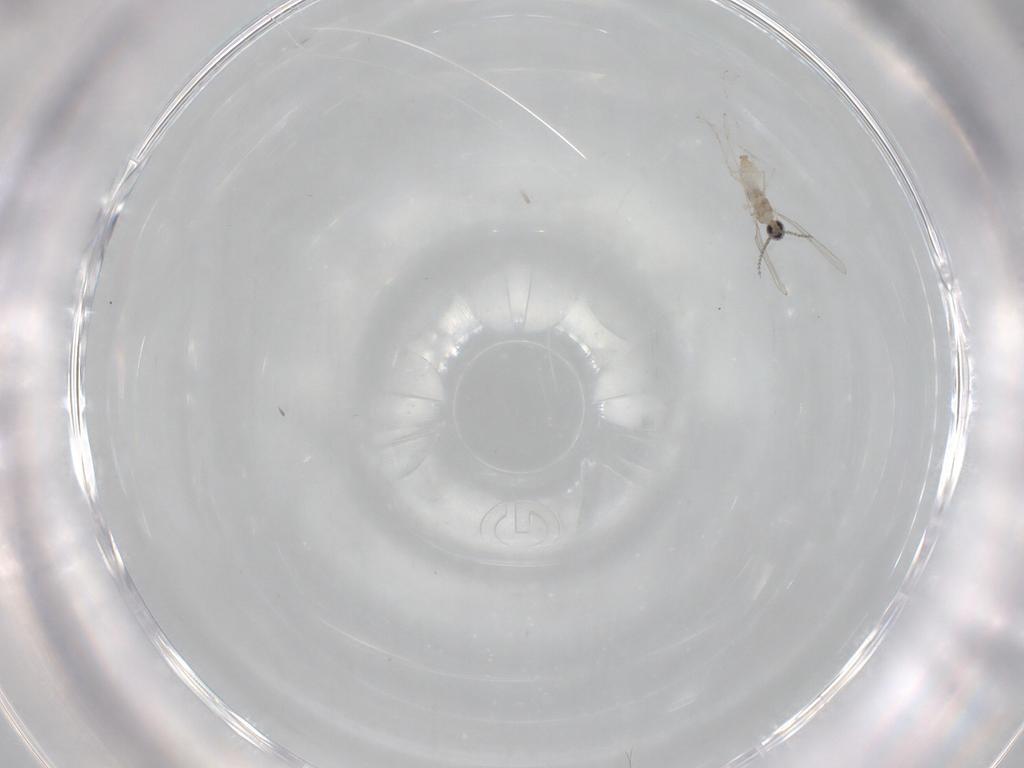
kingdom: Animalia
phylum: Arthropoda
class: Insecta
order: Diptera
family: Cecidomyiidae
